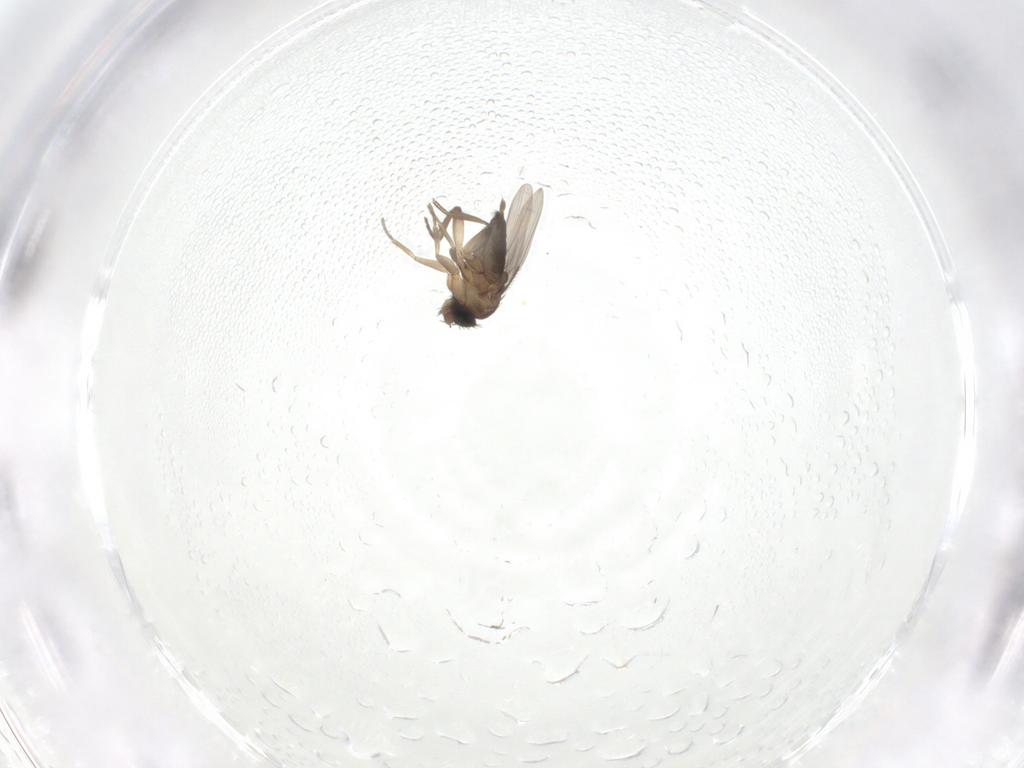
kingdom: Animalia
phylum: Arthropoda
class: Insecta
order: Diptera
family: Phoridae
